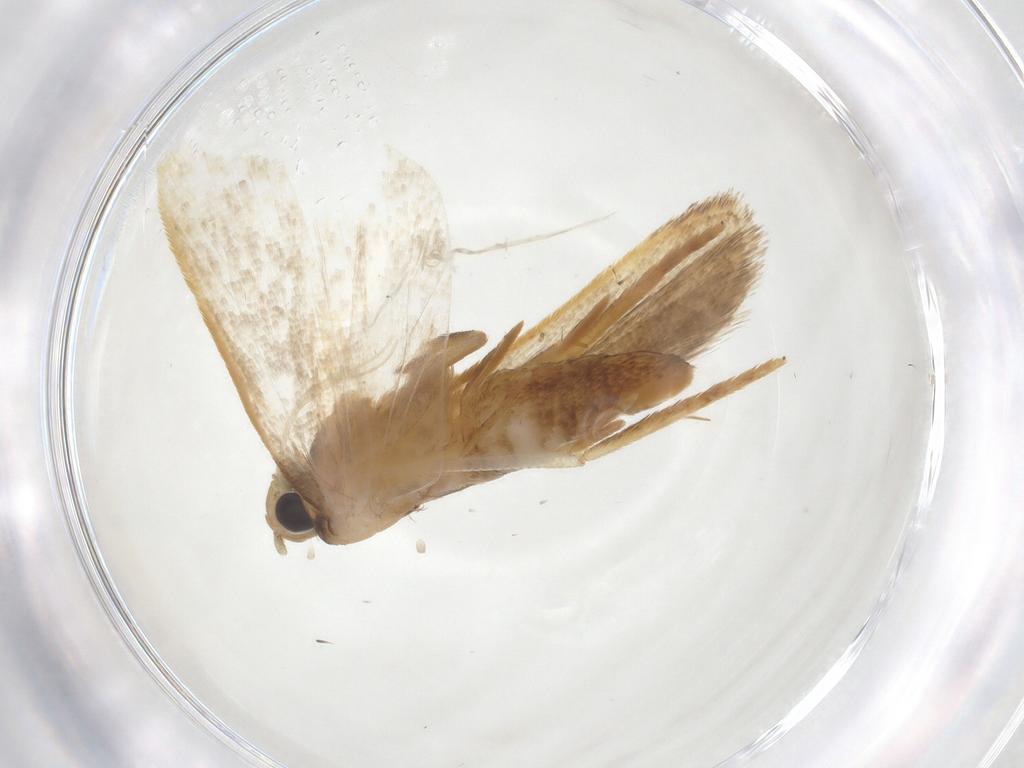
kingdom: Animalia
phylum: Arthropoda
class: Insecta
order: Lepidoptera
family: Gelechiidae
